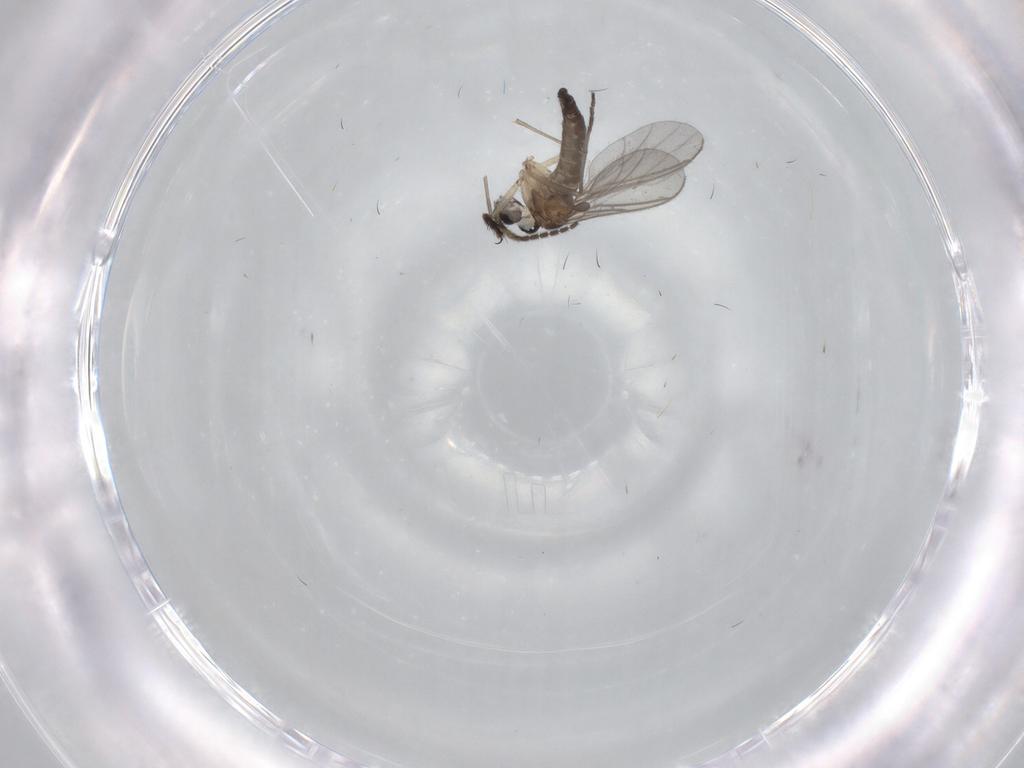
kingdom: Animalia
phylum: Arthropoda
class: Insecta
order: Diptera
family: Sciaridae
